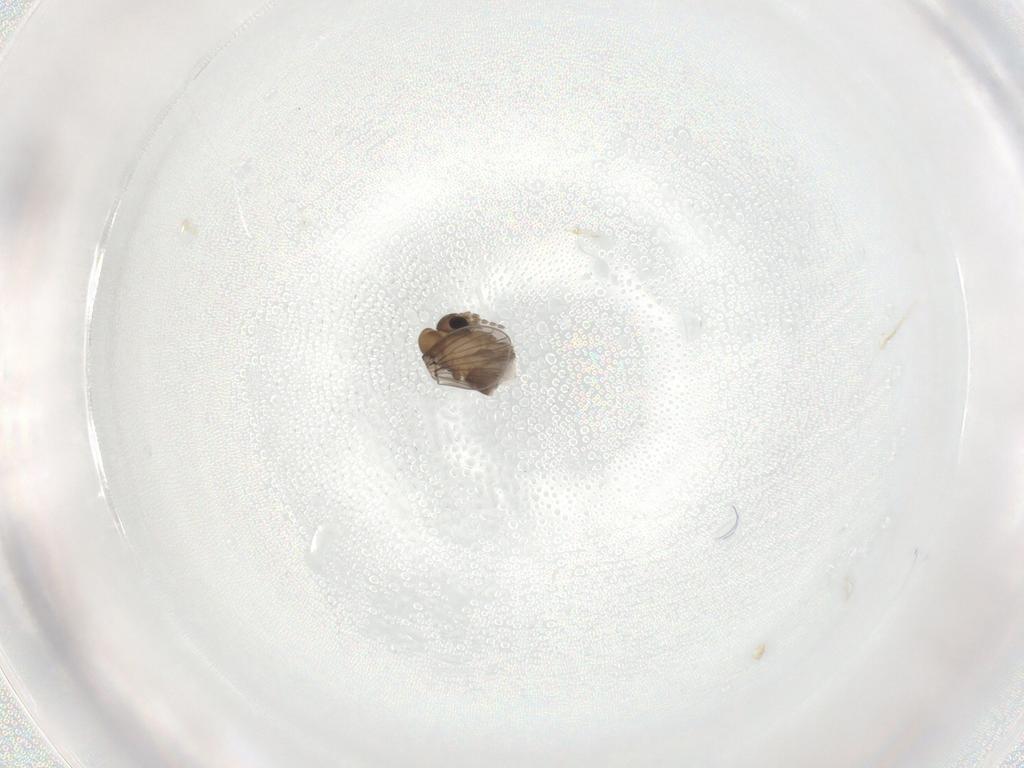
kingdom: Animalia
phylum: Arthropoda
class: Insecta
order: Diptera
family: Psychodidae
